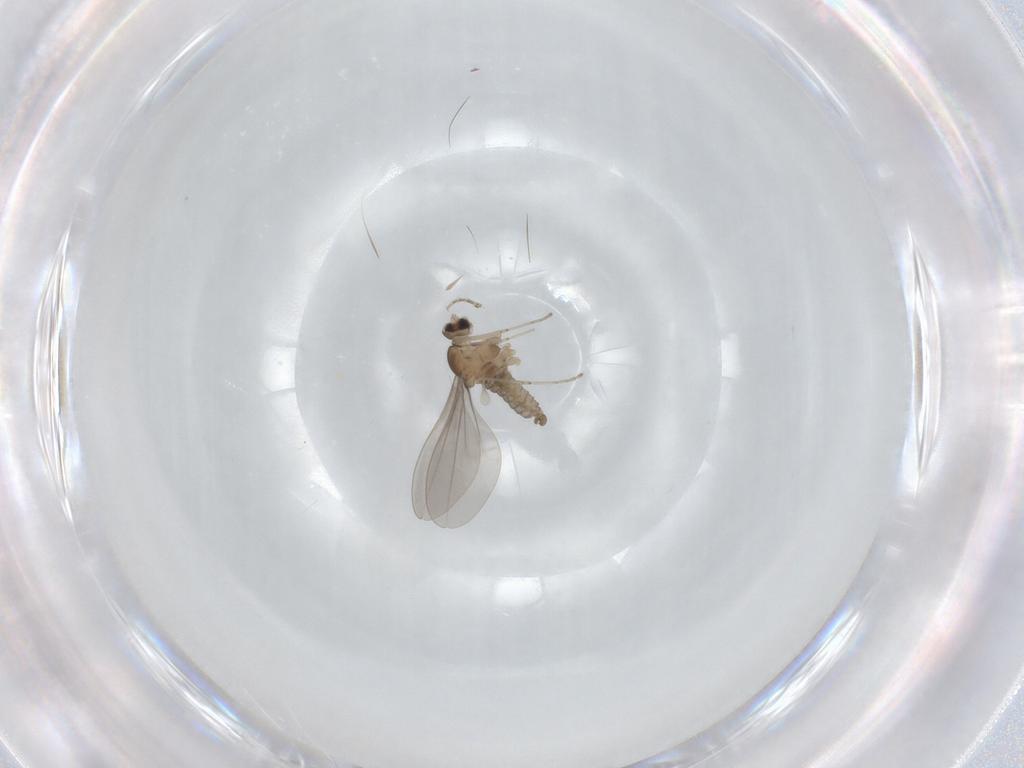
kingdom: Animalia
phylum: Arthropoda
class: Insecta
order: Diptera
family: Cecidomyiidae
